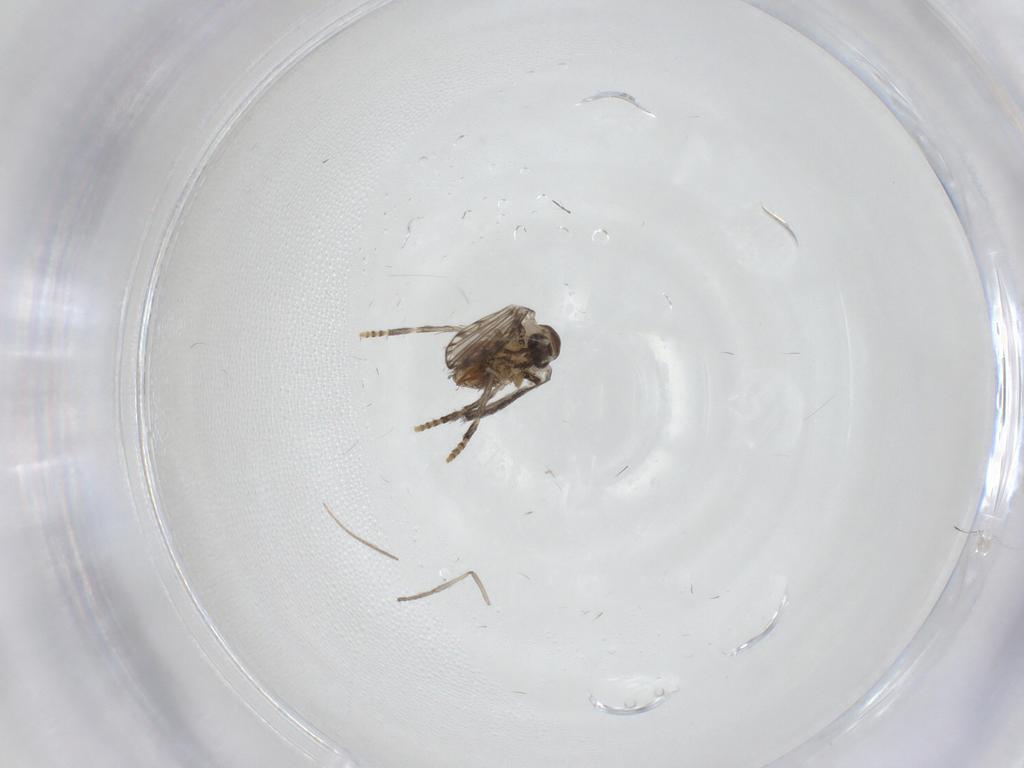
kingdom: Animalia
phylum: Arthropoda
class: Insecta
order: Diptera
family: Psychodidae
